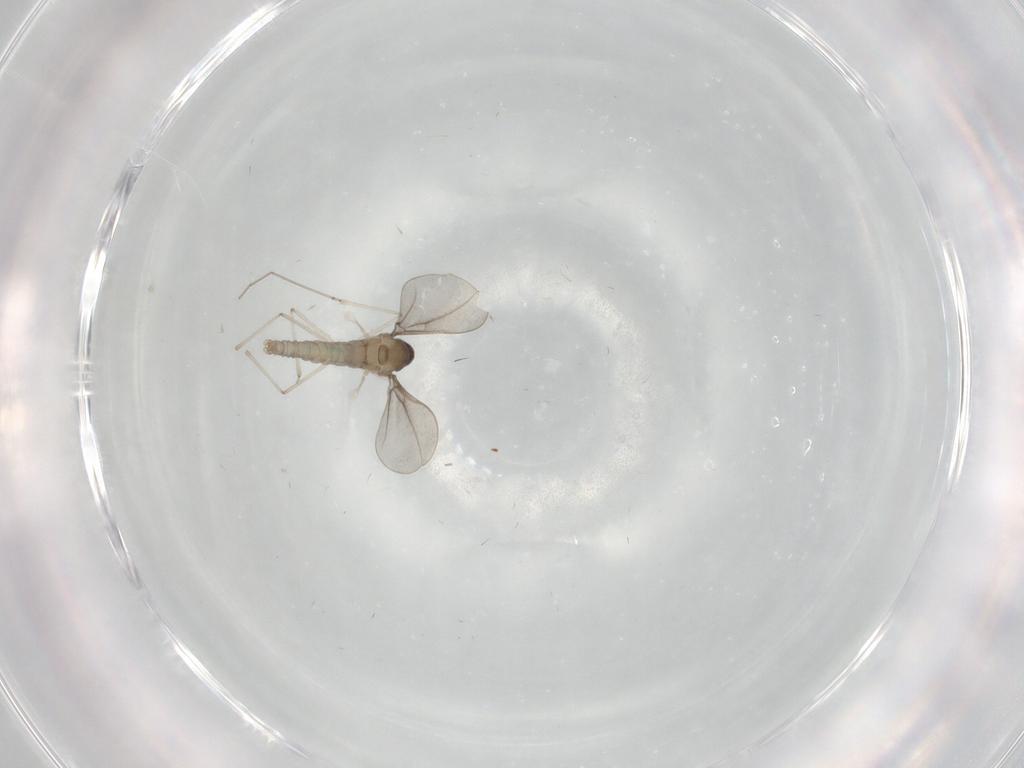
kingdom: Animalia
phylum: Arthropoda
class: Insecta
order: Diptera
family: Cecidomyiidae
